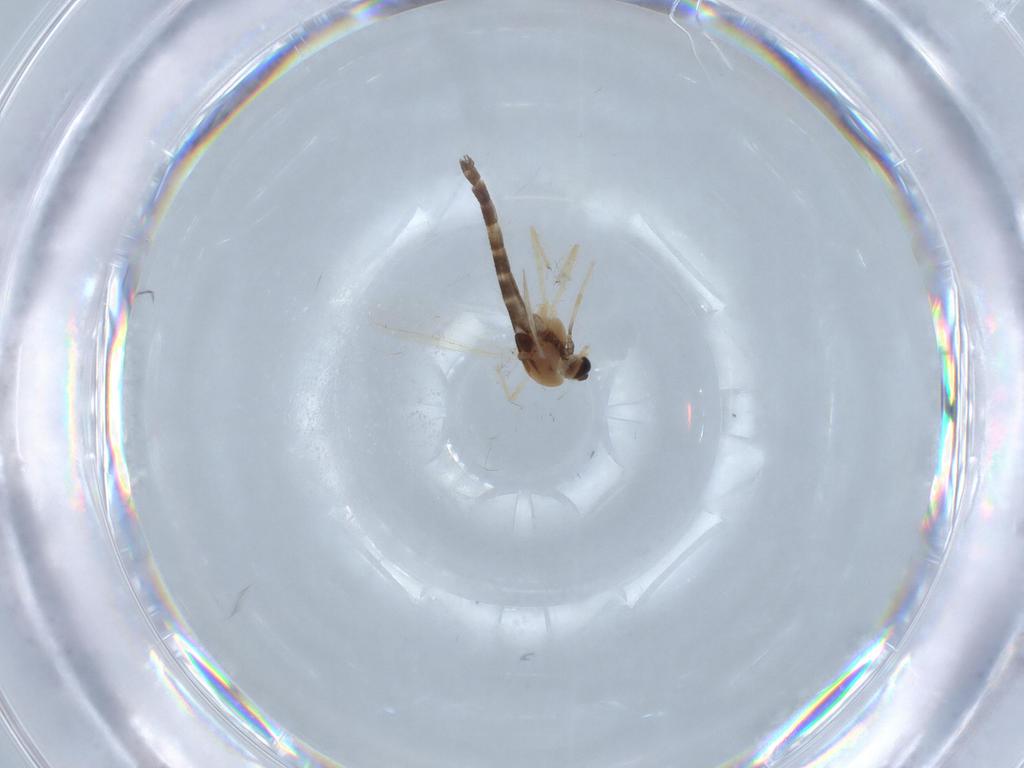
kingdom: Animalia
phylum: Arthropoda
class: Insecta
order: Diptera
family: Chironomidae
